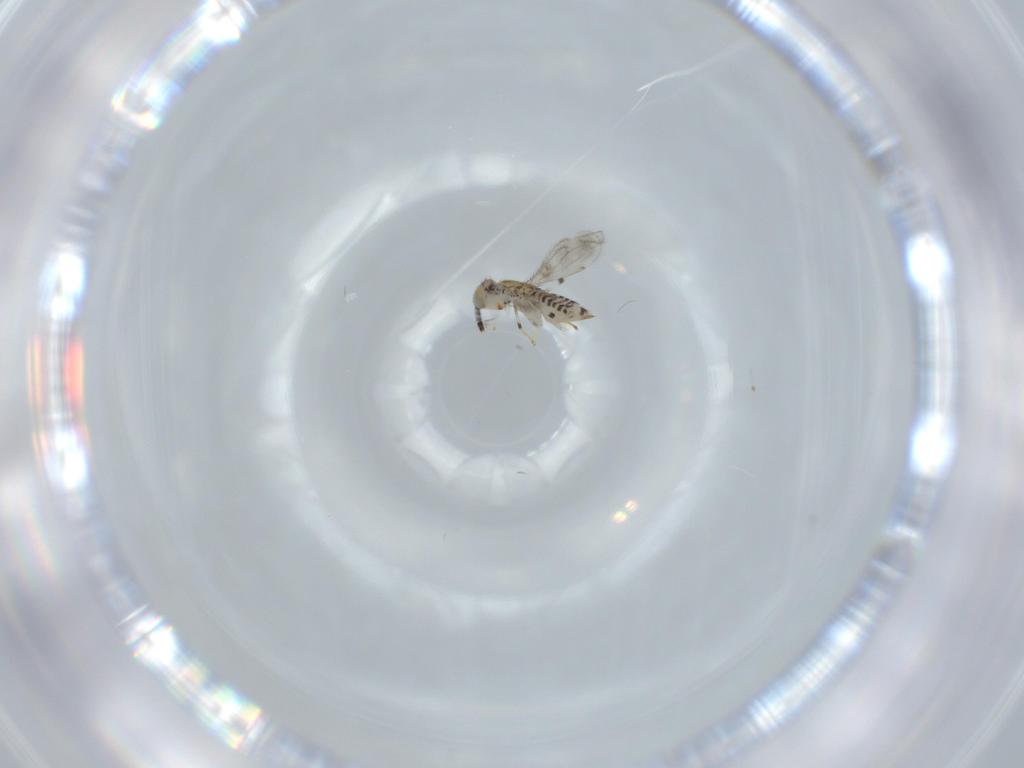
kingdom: Animalia
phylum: Arthropoda
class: Insecta
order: Hymenoptera
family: Aphelinidae
